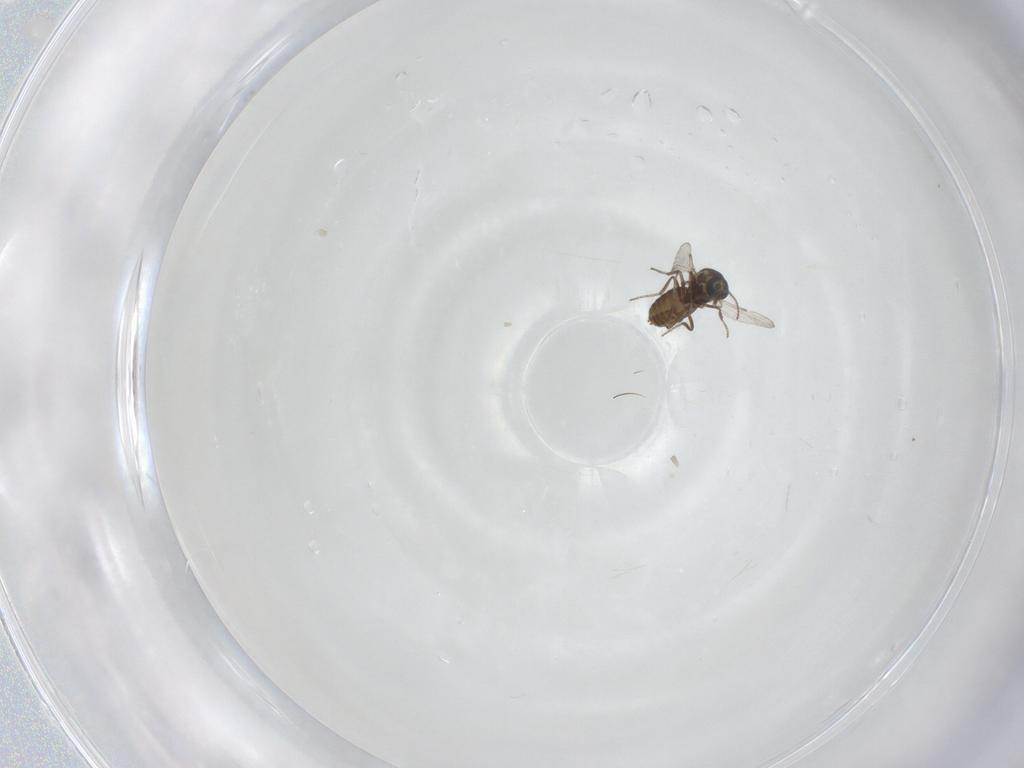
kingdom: Animalia
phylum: Arthropoda
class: Insecta
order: Diptera
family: Ceratopogonidae
